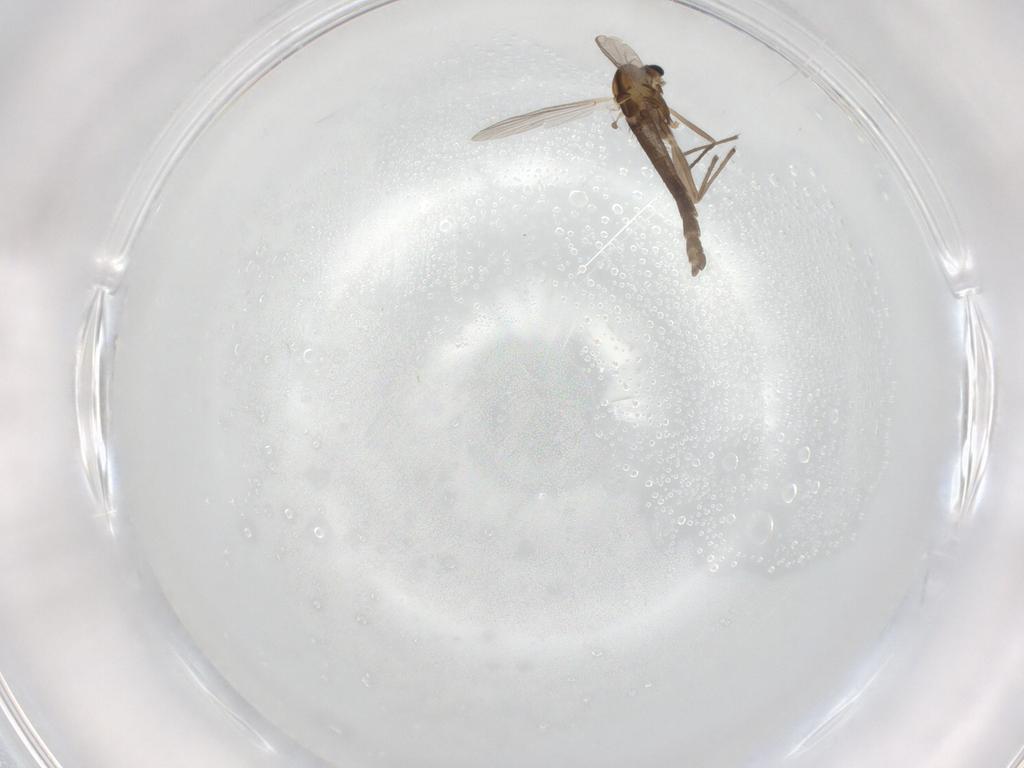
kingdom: Animalia
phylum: Arthropoda
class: Insecta
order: Diptera
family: Chironomidae
